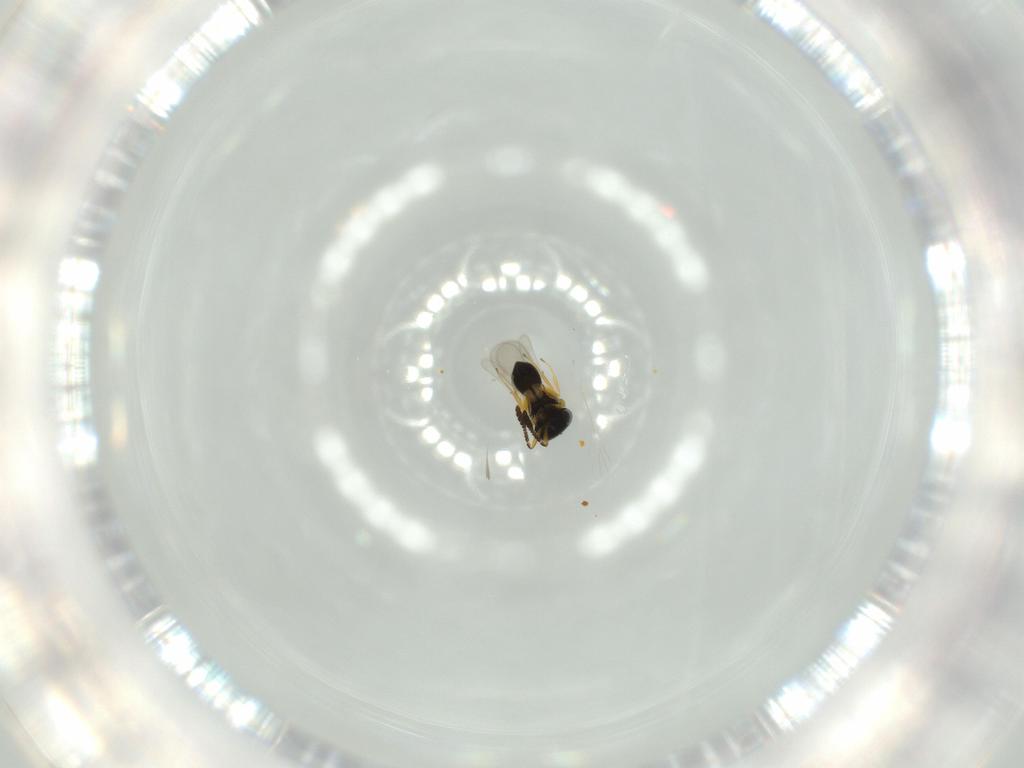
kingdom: Animalia
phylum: Arthropoda
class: Insecta
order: Hymenoptera
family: Scelionidae
